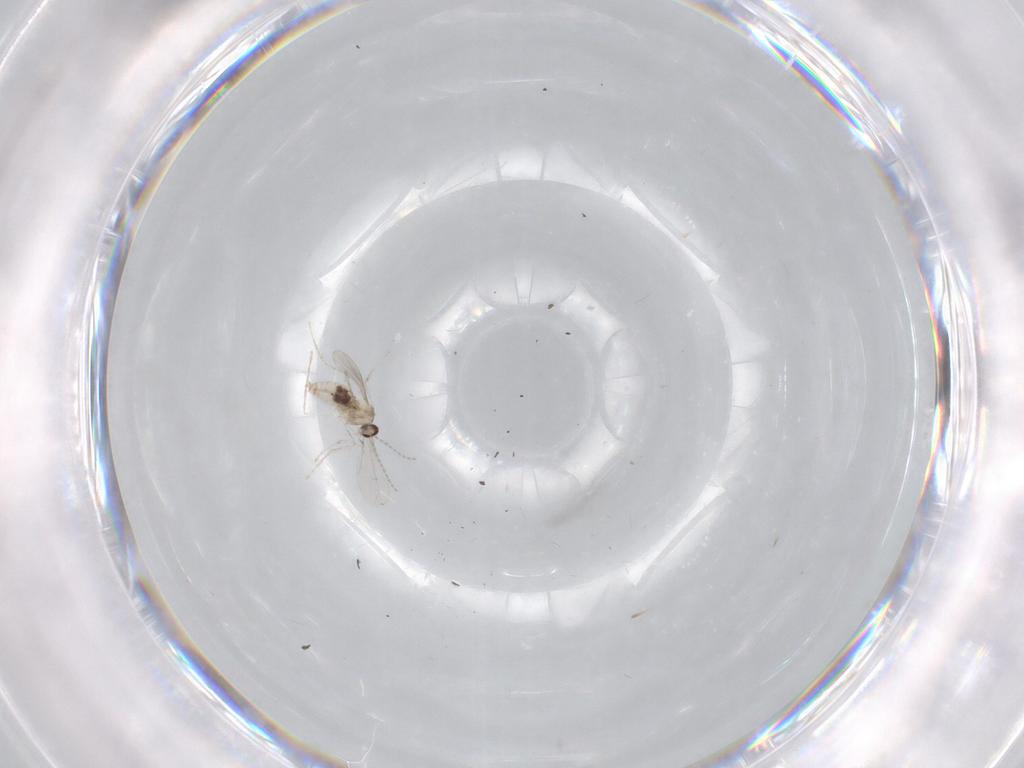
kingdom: Animalia
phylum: Arthropoda
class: Insecta
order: Diptera
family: Cecidomyiidae
